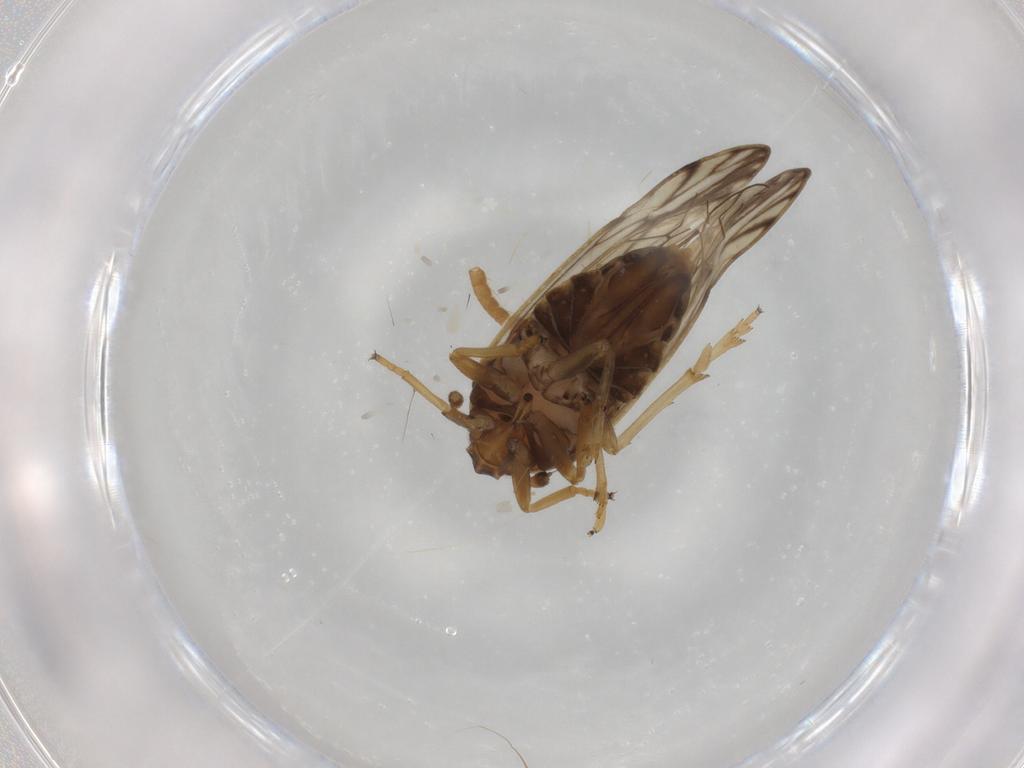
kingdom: Animalia
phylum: Arthropoda
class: Insecta
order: Hemiptera
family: Delphacidae
